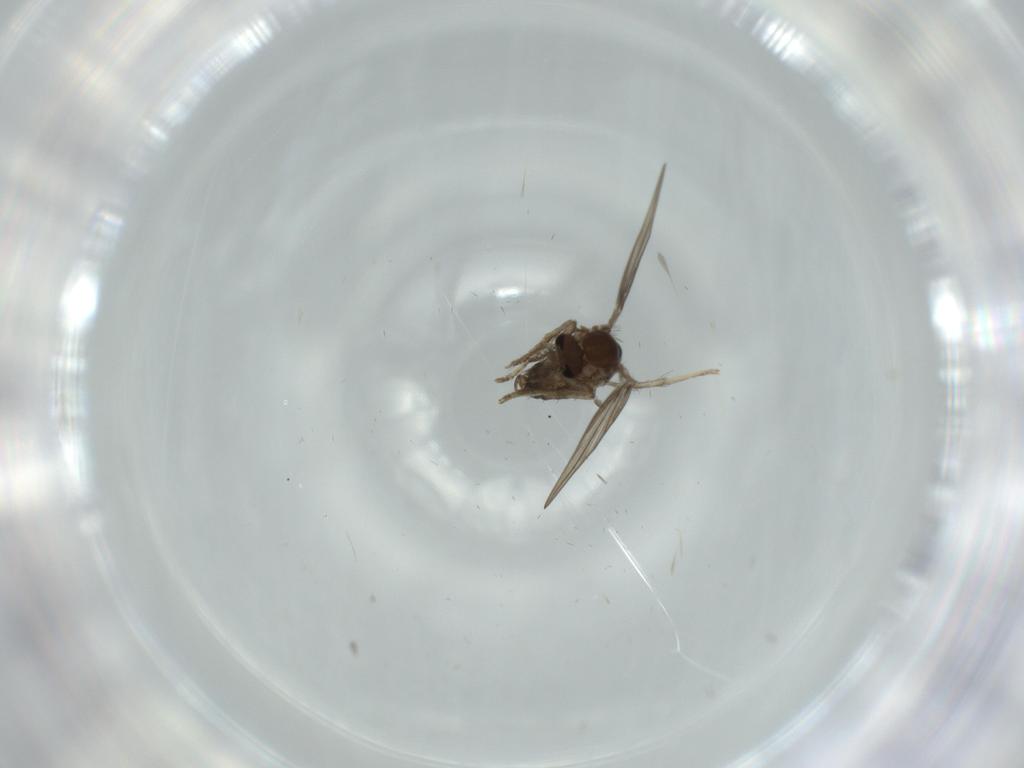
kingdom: Animalia
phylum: Arthropoda
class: Insecta
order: Diptera
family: Psychodidae
